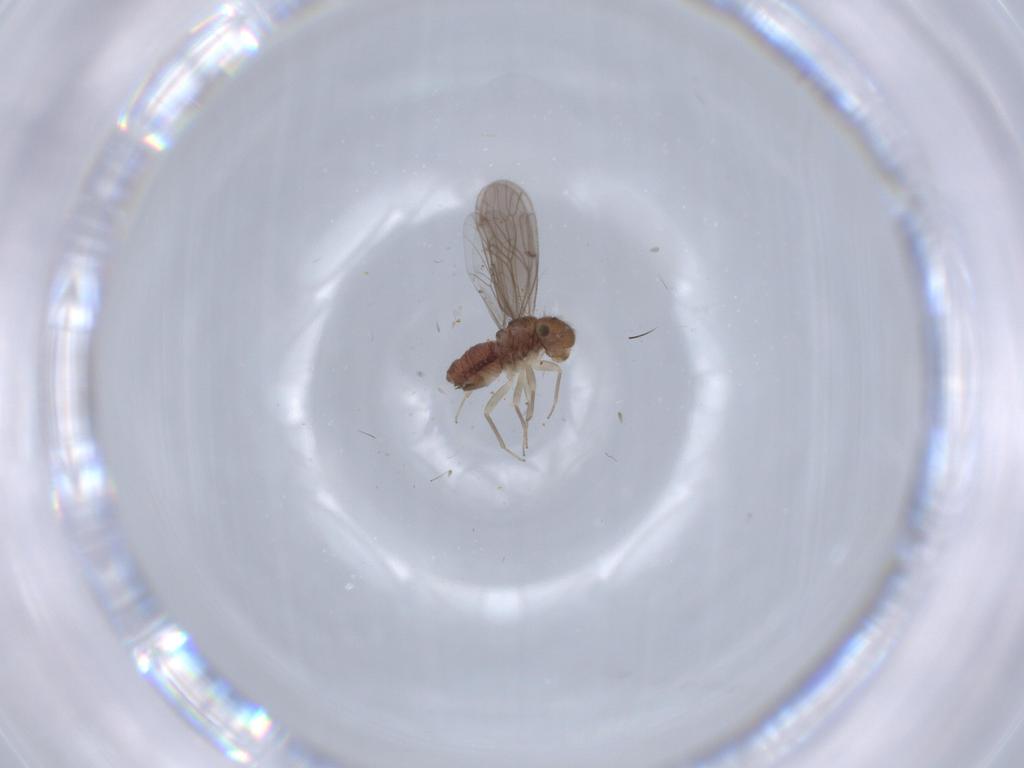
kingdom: Animalia
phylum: Arthropoda
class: Insecta
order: Psocodea
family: Ectopsocidae
